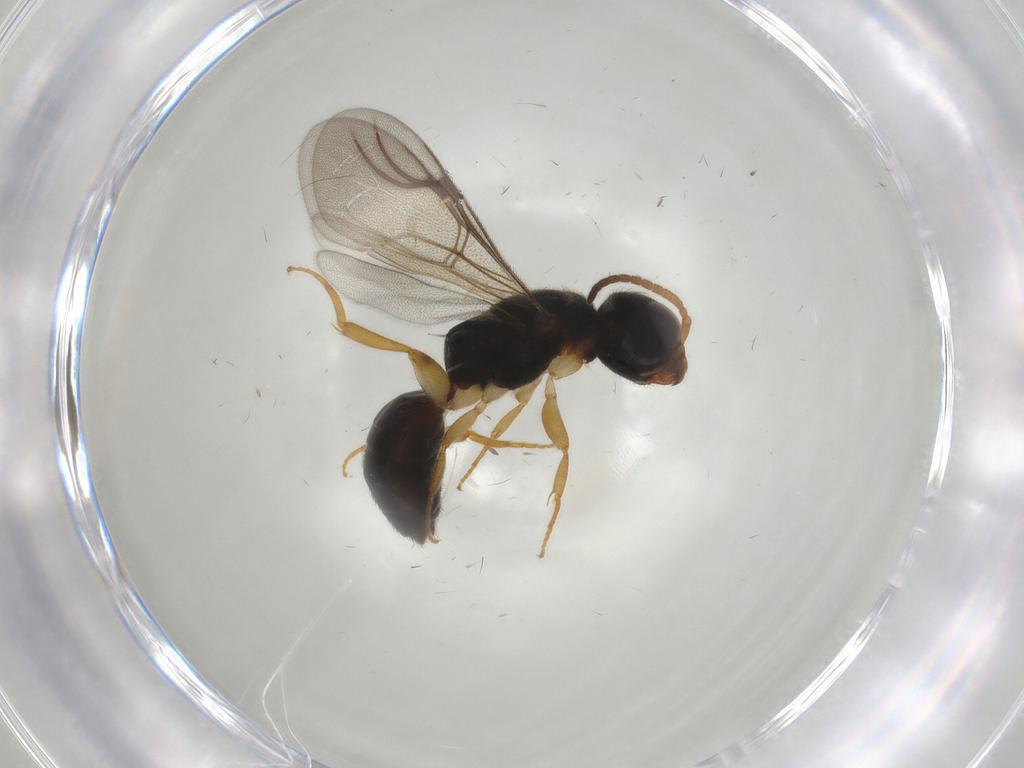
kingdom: Animalia
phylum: Arthropoda
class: Insecta
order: Hymenoptera
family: Bethylidae
